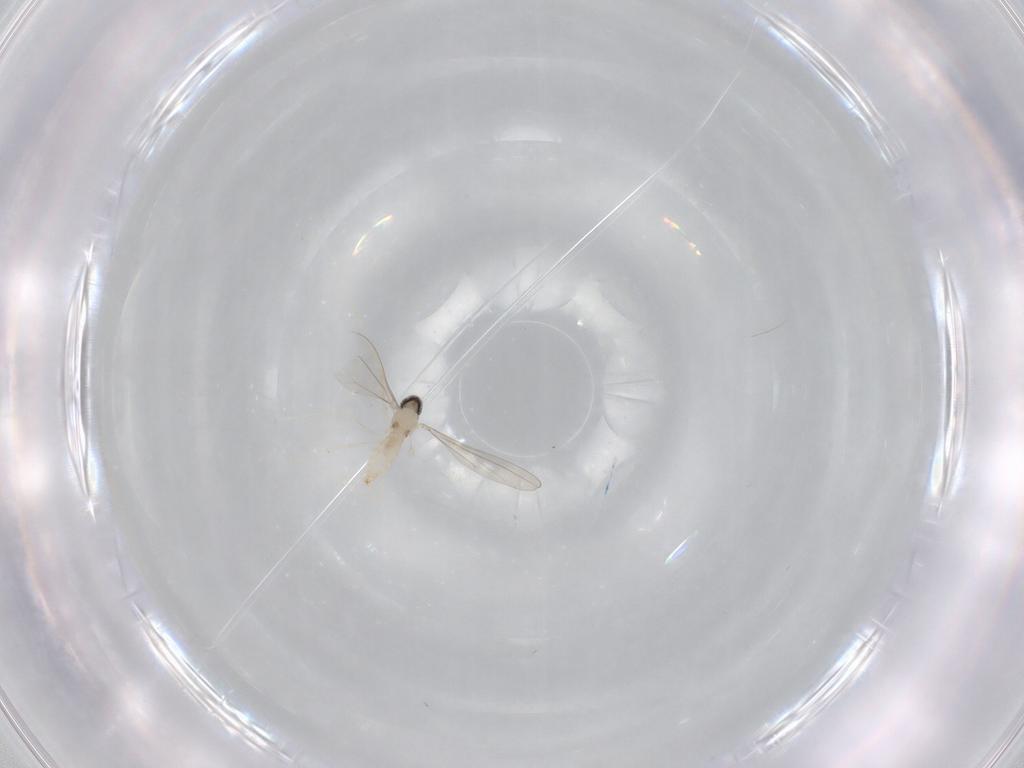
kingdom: Animalia
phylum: Arthropoda
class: Insecta
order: Diptera
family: Cecidomyiidae
